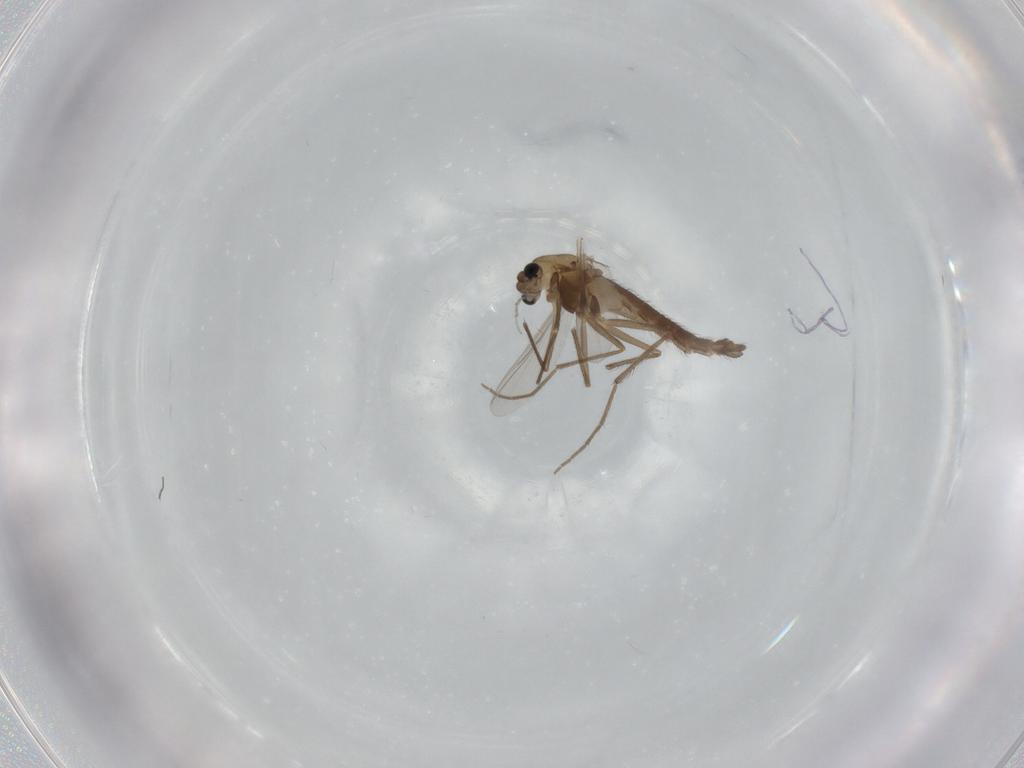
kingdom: Animalia
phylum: Arthropoda
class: Insecta
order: Diptera
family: Chironomidae
